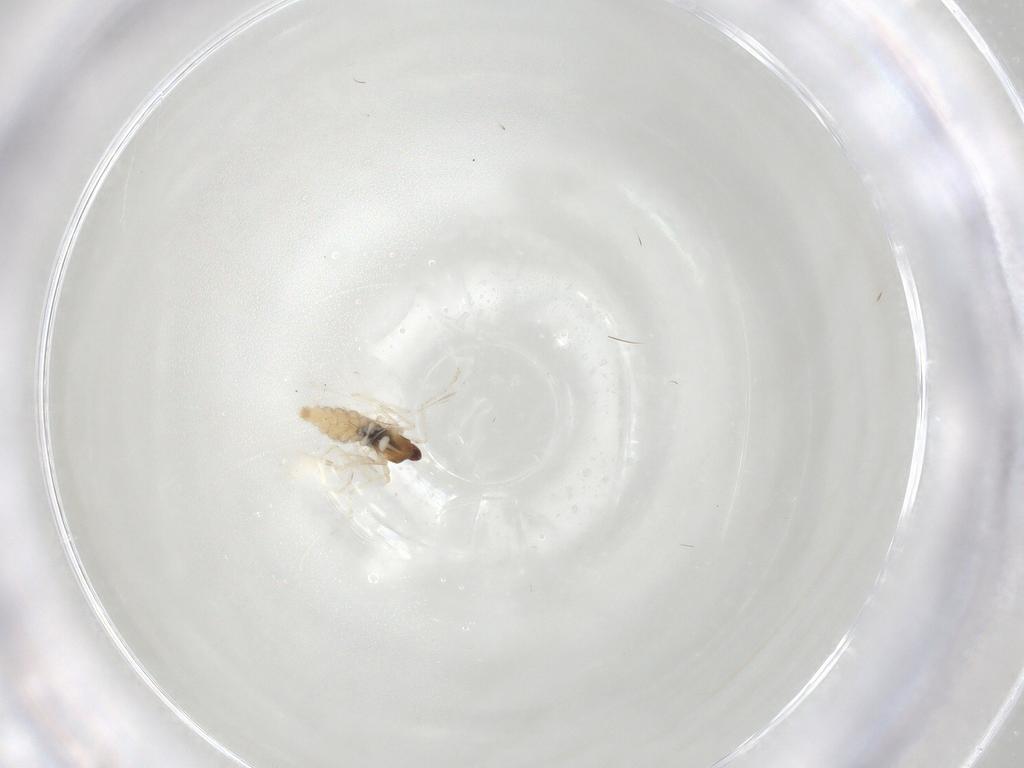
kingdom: Animalia
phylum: Arthropoda
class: Insecta
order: Diptera
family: Cecidomyiidae
